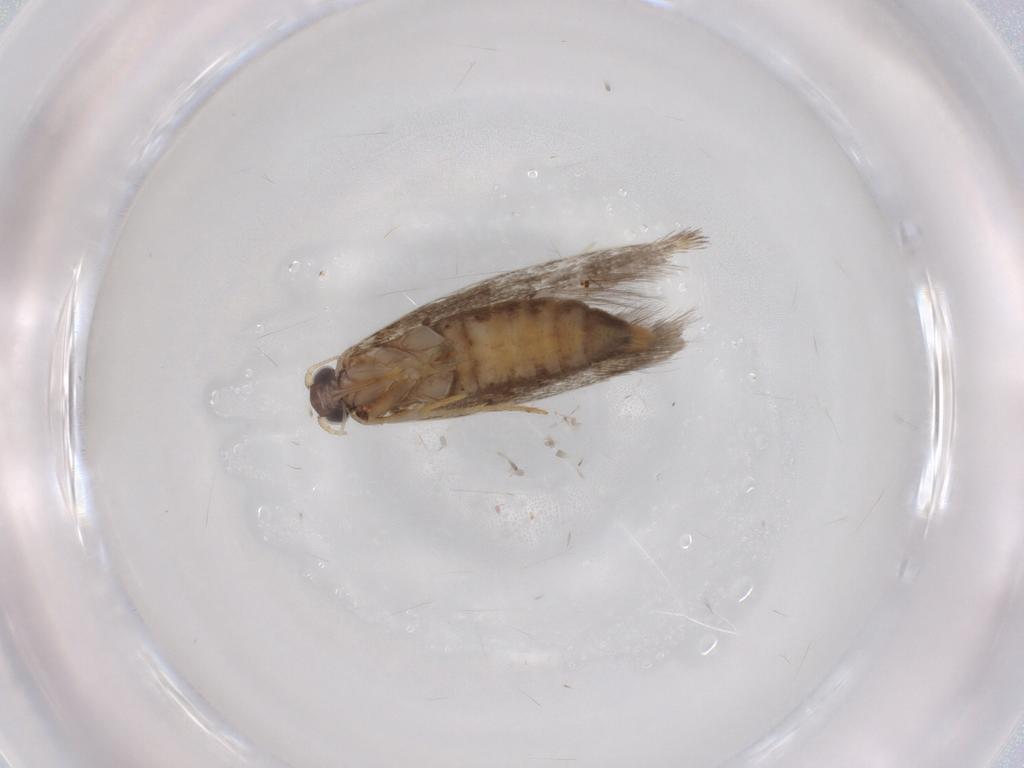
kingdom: Animalia
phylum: Arthropoda
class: Insecta
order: Lepidoptera
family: Tineidae
